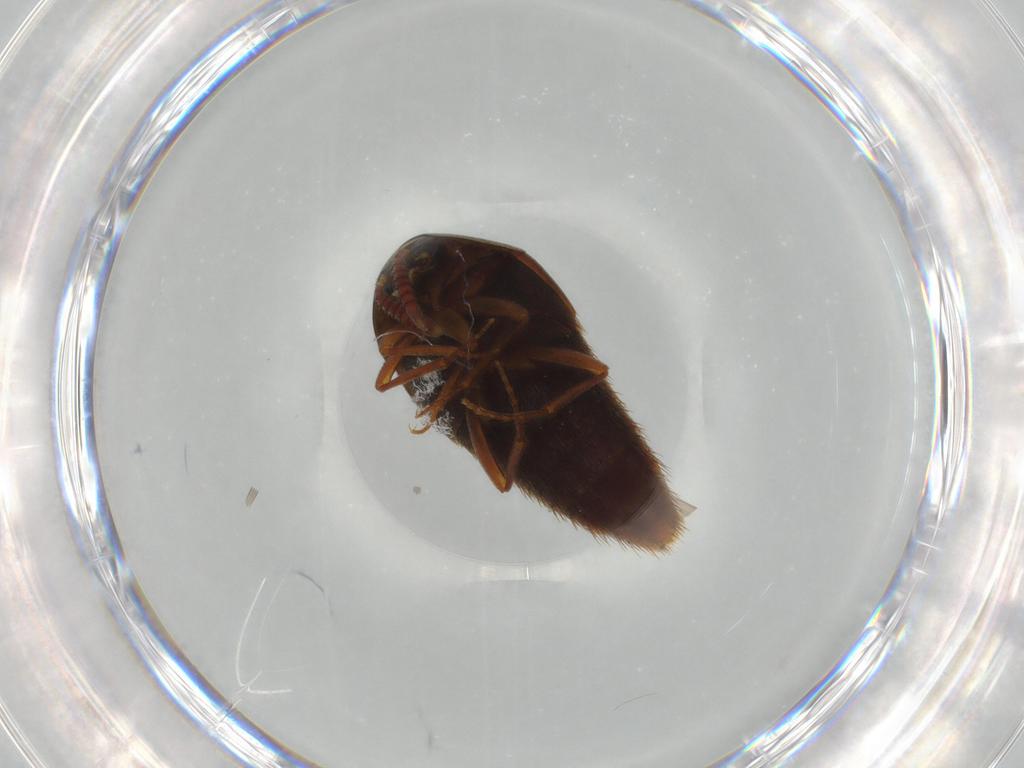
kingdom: Animalia
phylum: Arthropoda
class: Insecta
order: Coleoptera
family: Staphylinidae
